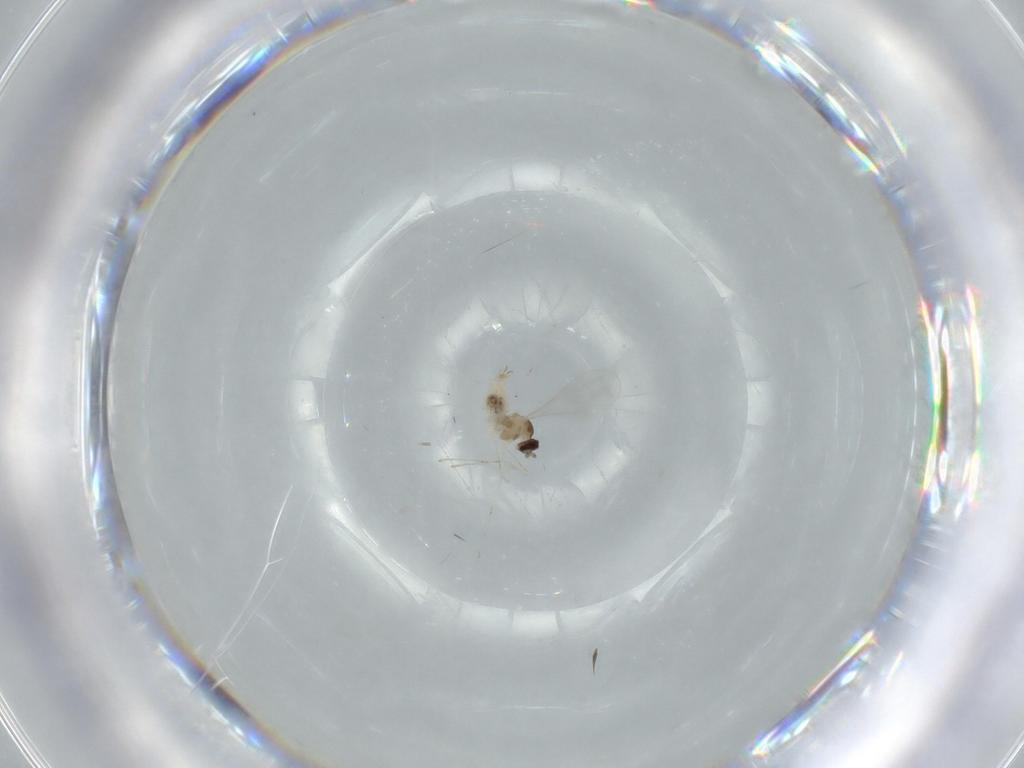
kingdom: Animalia
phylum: Arthropoda
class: Insecta
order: Diptera
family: Cecidomyiidae
